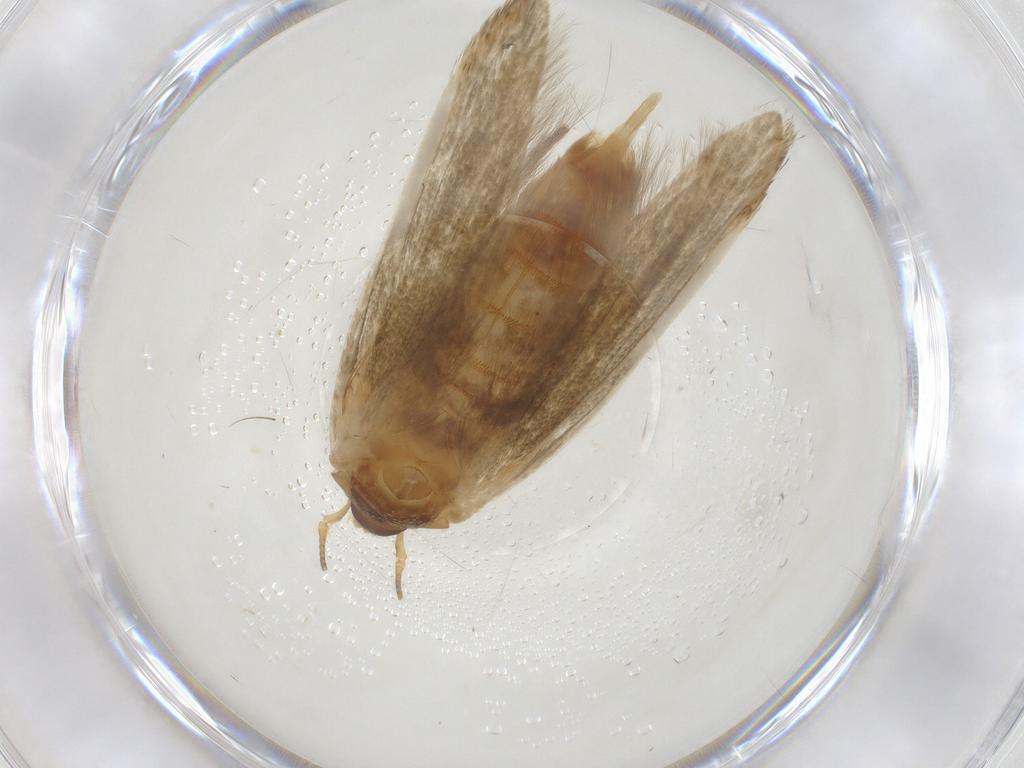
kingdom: Animalia
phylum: Arthropoda
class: Insecta
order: Lepidoptera
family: Blastobasidae
